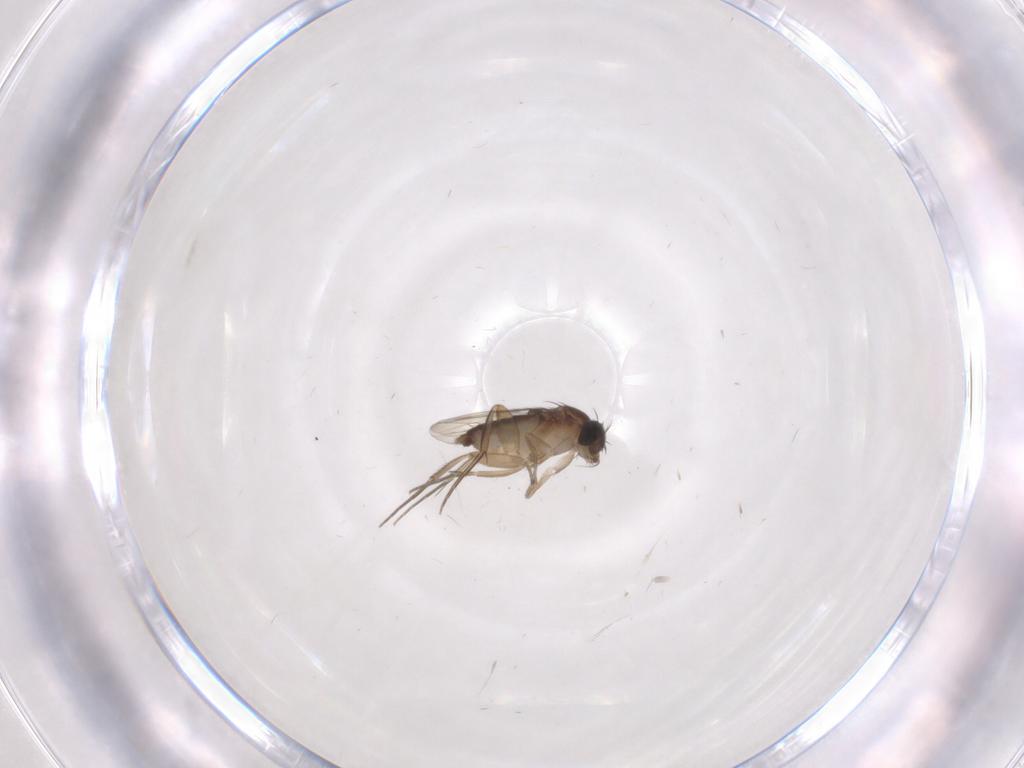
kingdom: Animalia
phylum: Arthropoda
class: Insecta
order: Diptera
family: Phoridae
